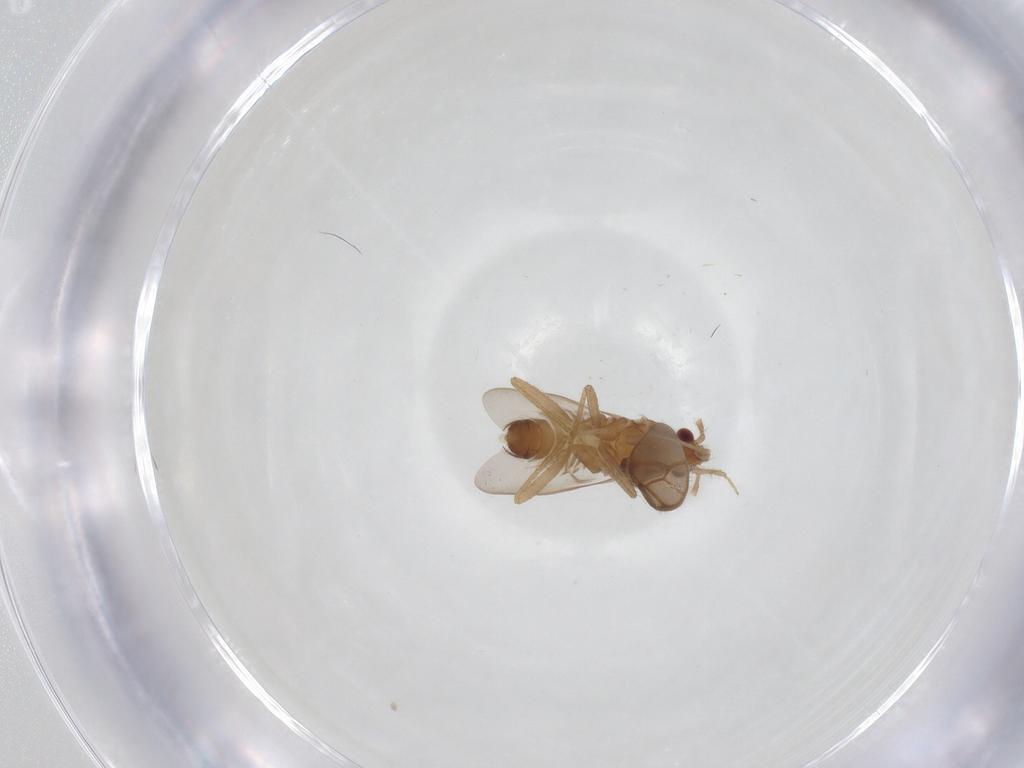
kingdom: Animalia
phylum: Arthropoda
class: Insecta
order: Hemiptera
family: Ceratocombidae
